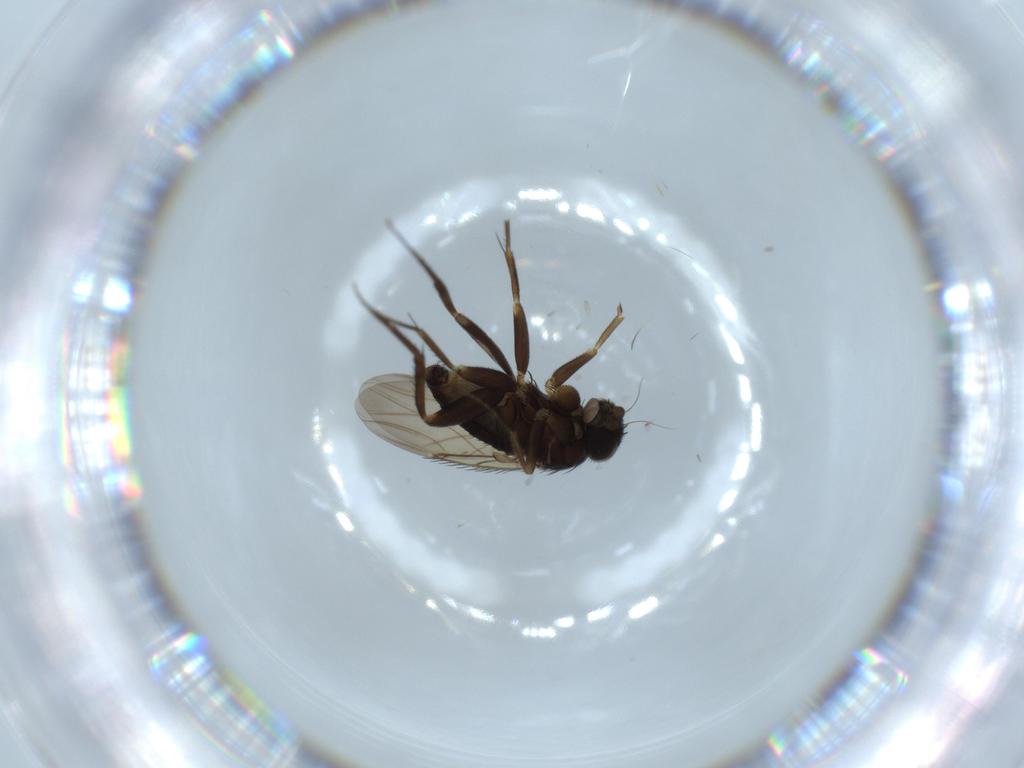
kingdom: Animalia
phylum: Arthropoda
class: Insecta
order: Diptera
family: Phoridae
